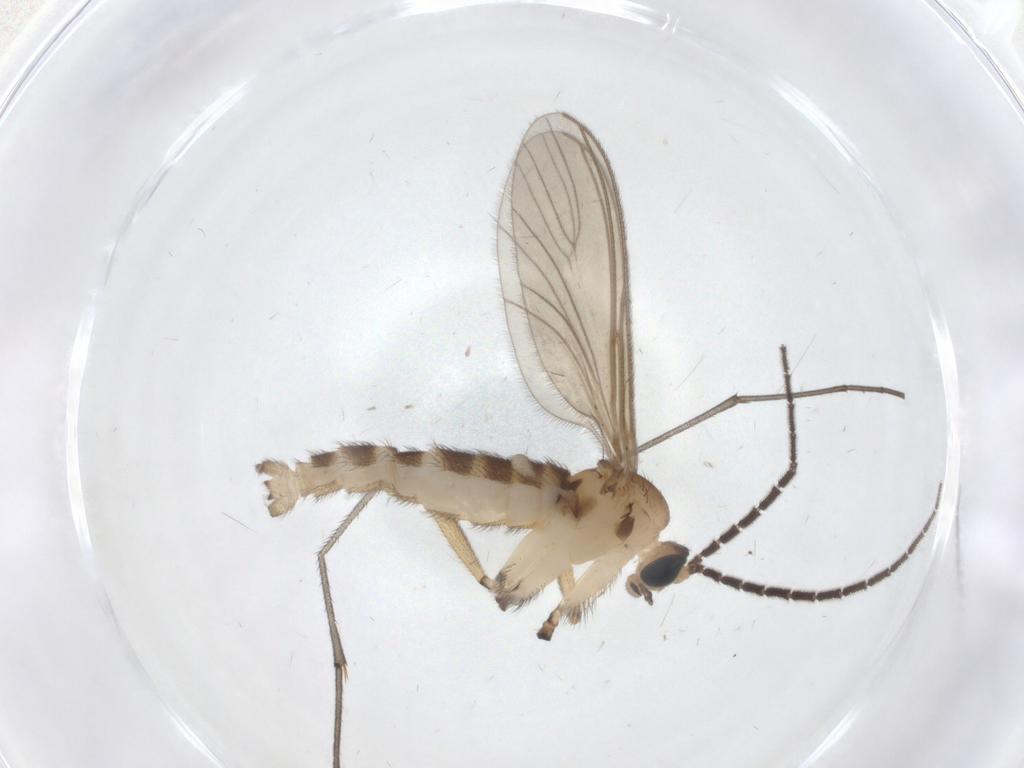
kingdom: Animalia
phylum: Arthropoda
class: Insecta
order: Diptera
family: Sciaridae
